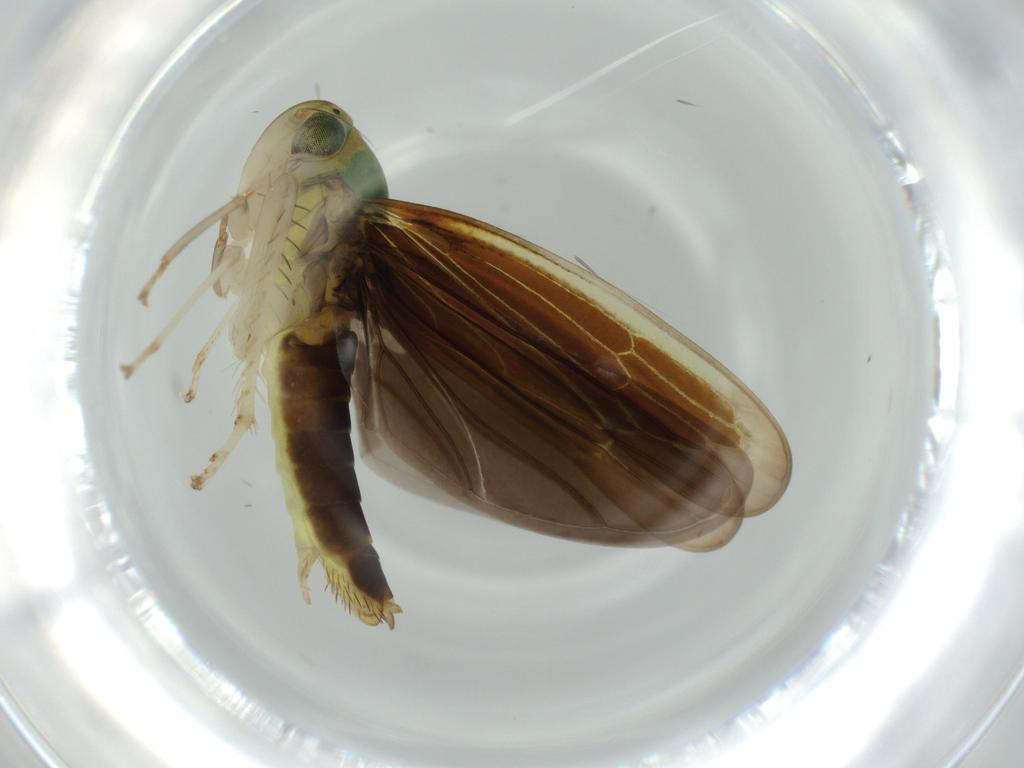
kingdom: Animalia
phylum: Arthropoda
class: Insecta
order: Hemiptera
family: Cicadellidae
